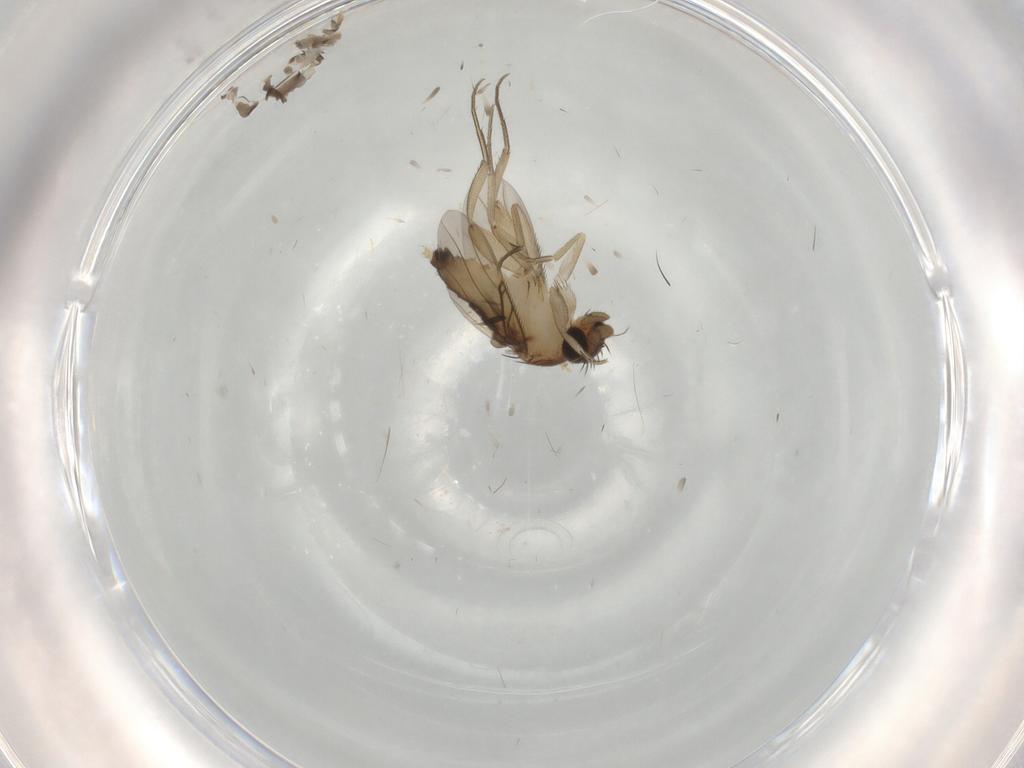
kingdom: Animalia
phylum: Arthropoda
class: Insecta
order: Diptera
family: Phoridae
